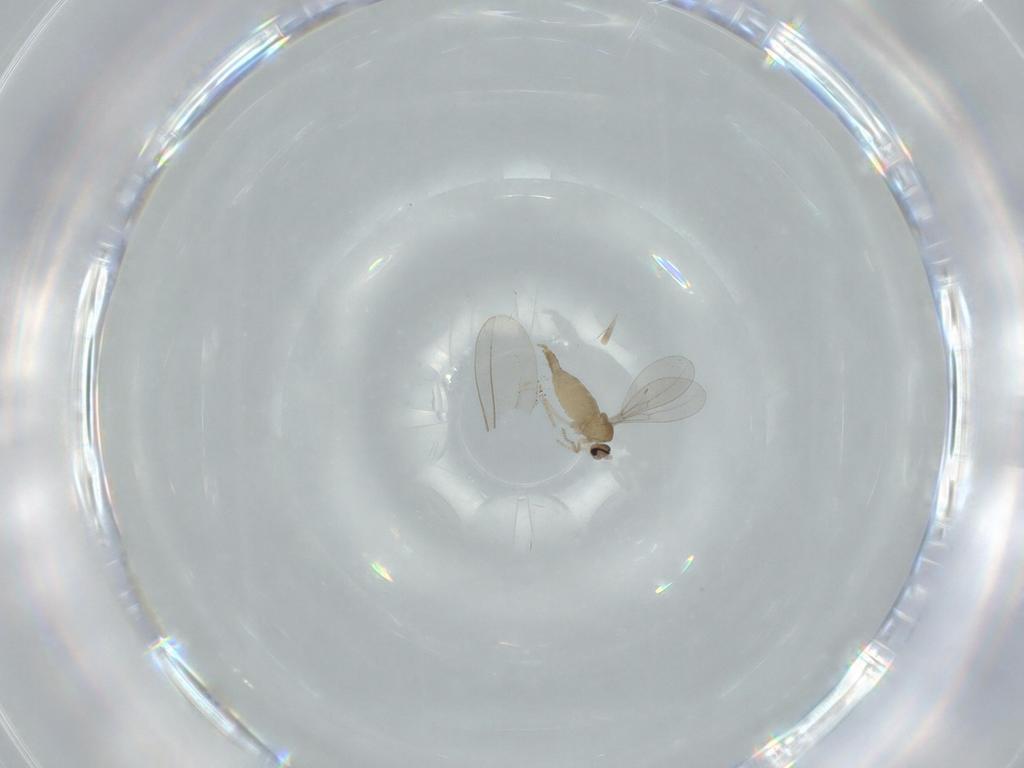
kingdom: Animalia
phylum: Arthropoda
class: Insecta
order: Diptera
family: Cecidomyiidae
